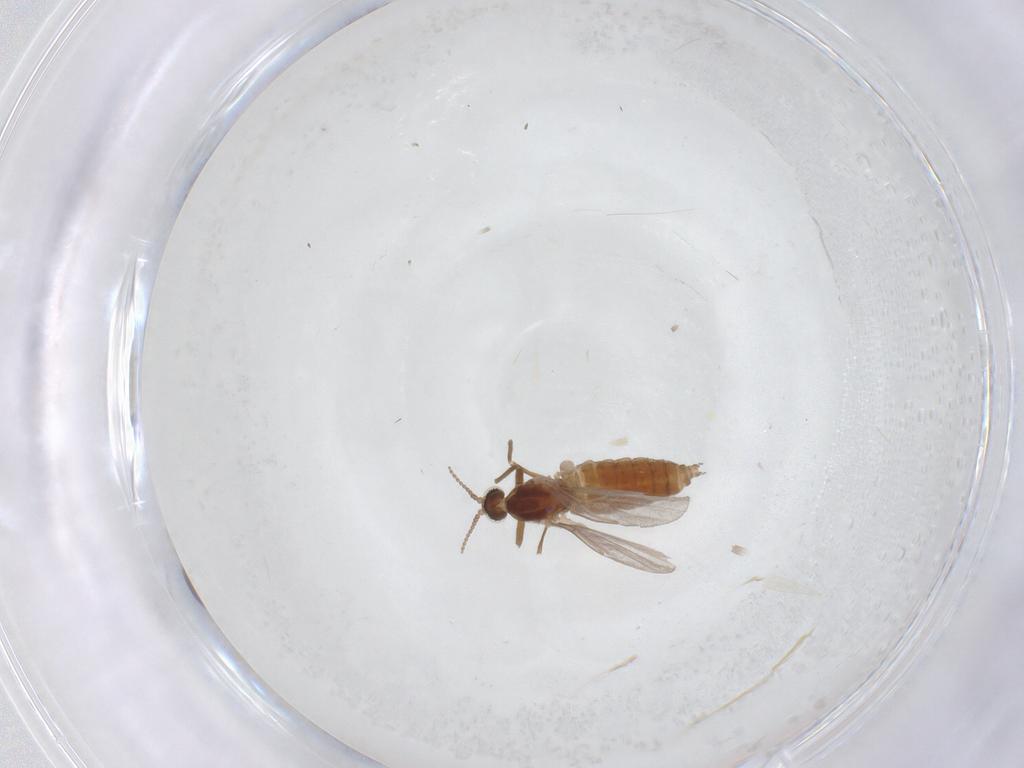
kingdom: Animalia
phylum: Arthropoda
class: Insecta
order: Diptera
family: Cecidomyiidae
